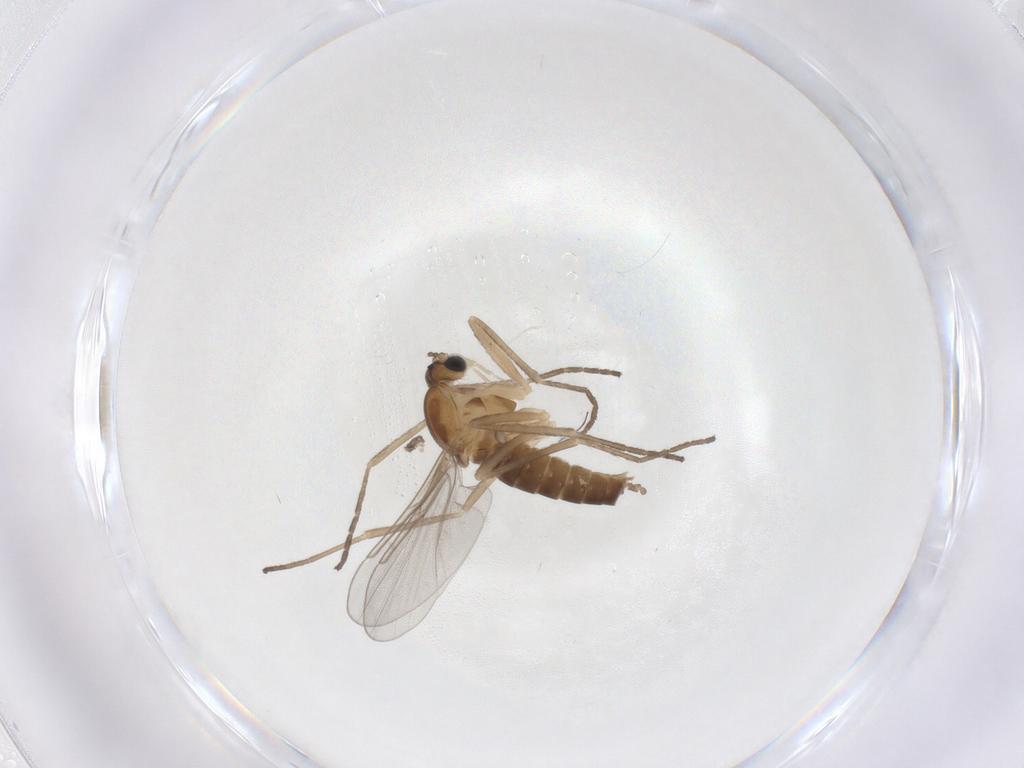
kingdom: Animalia
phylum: Arthropoda
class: Insecta
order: Diptera
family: Cecidomyiidae
